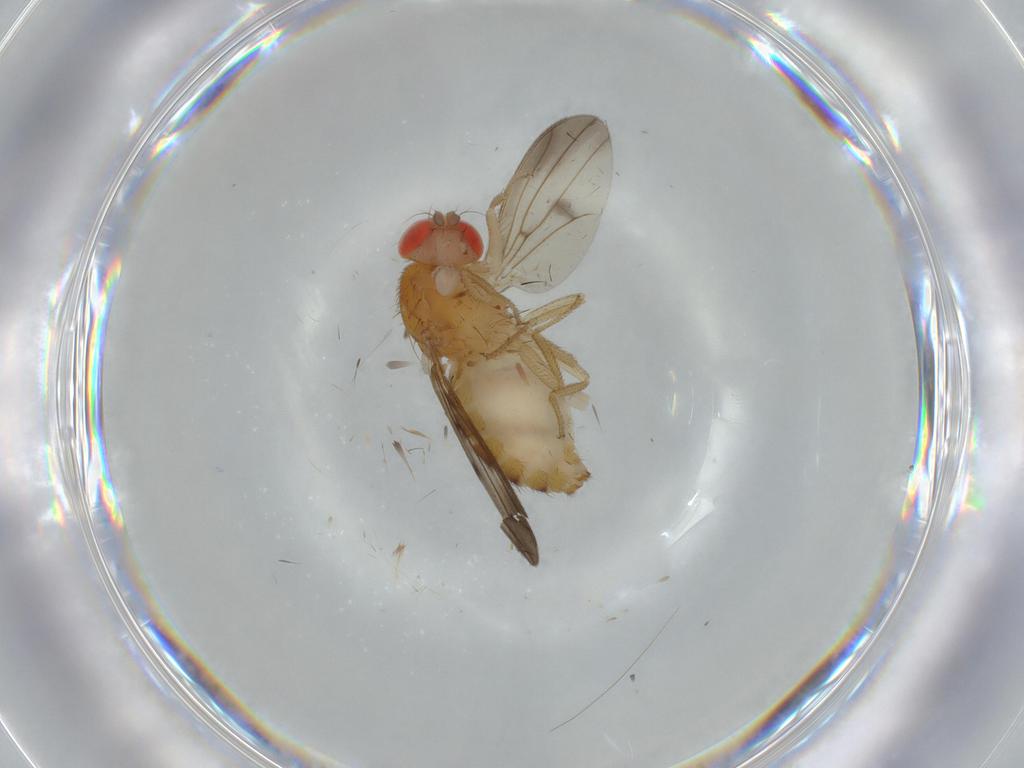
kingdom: Animalia
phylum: Arthropoda
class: Insecta
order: Diptera
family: Drosophilidae
